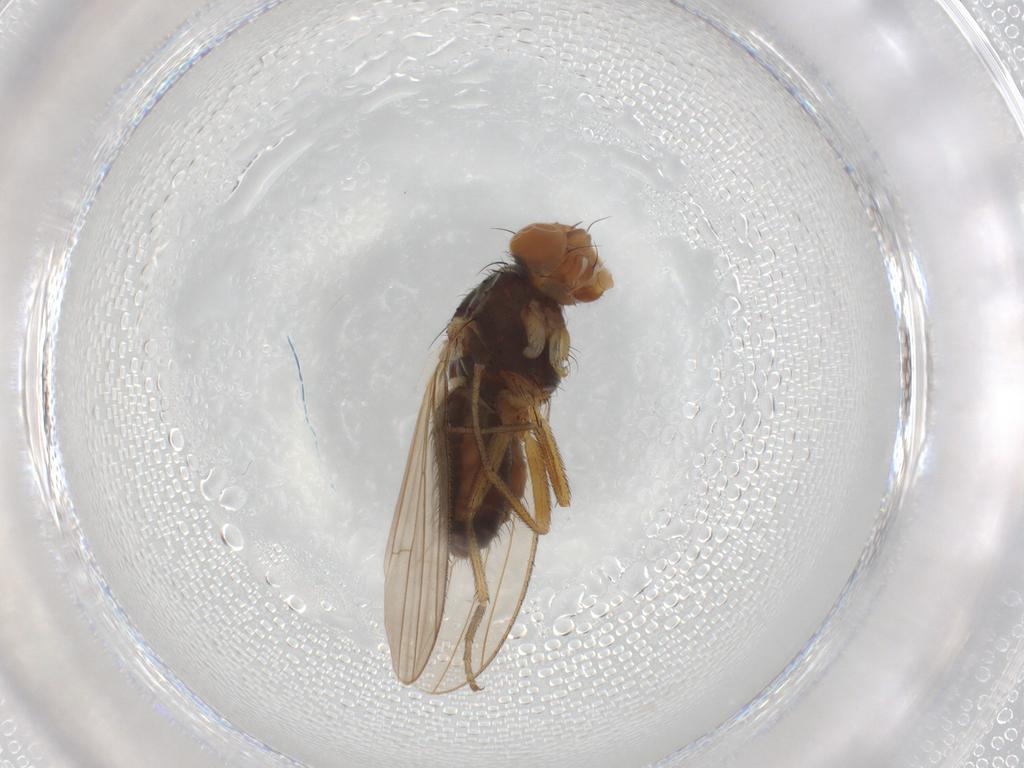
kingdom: Animalia
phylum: Arthropoda
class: Insecta
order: Diptera
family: Heleomyzidae
